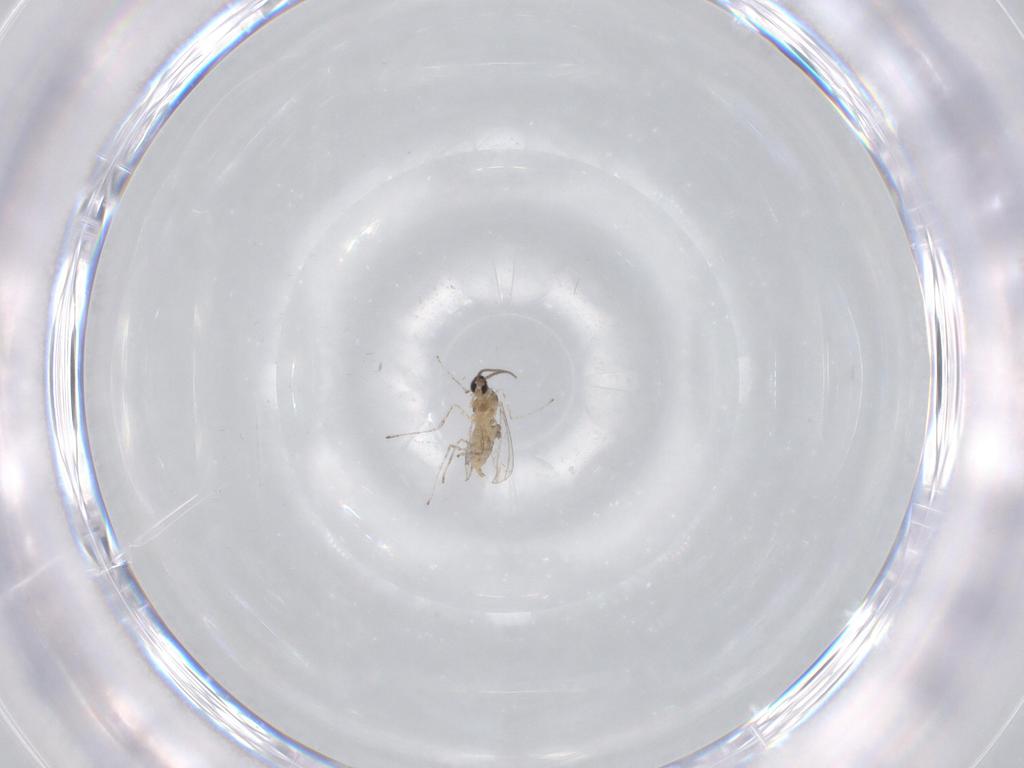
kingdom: Animalia
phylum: Arthropoda
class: Insecta
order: Diptera
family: Cecidomyiidae
